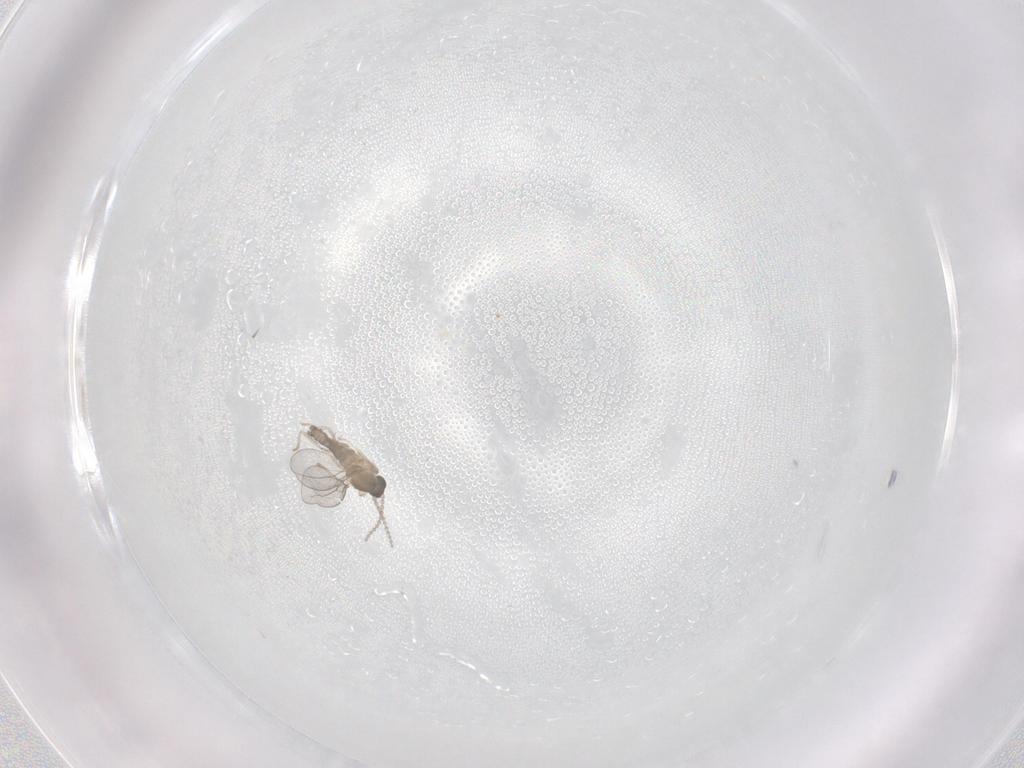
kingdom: Animalia
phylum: Arthropoda
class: Insecta
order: Diptera
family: Cecidomyiidae
